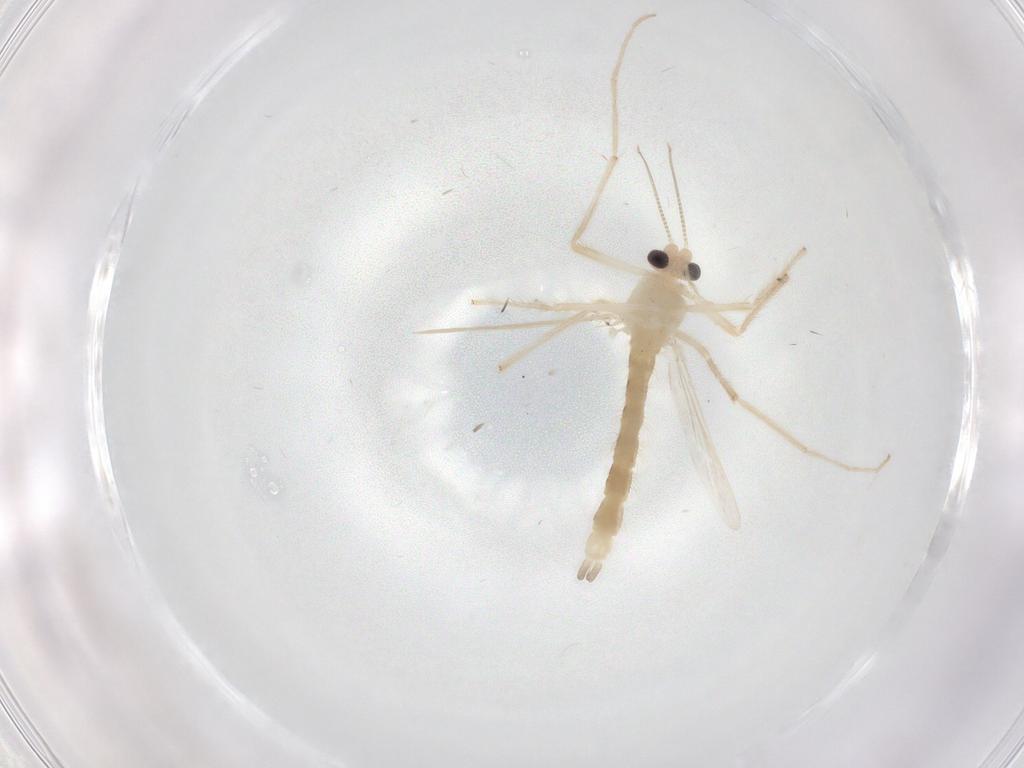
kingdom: Animalia
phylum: Arthropoda
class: Insecta
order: Diptera
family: Chironomidae
